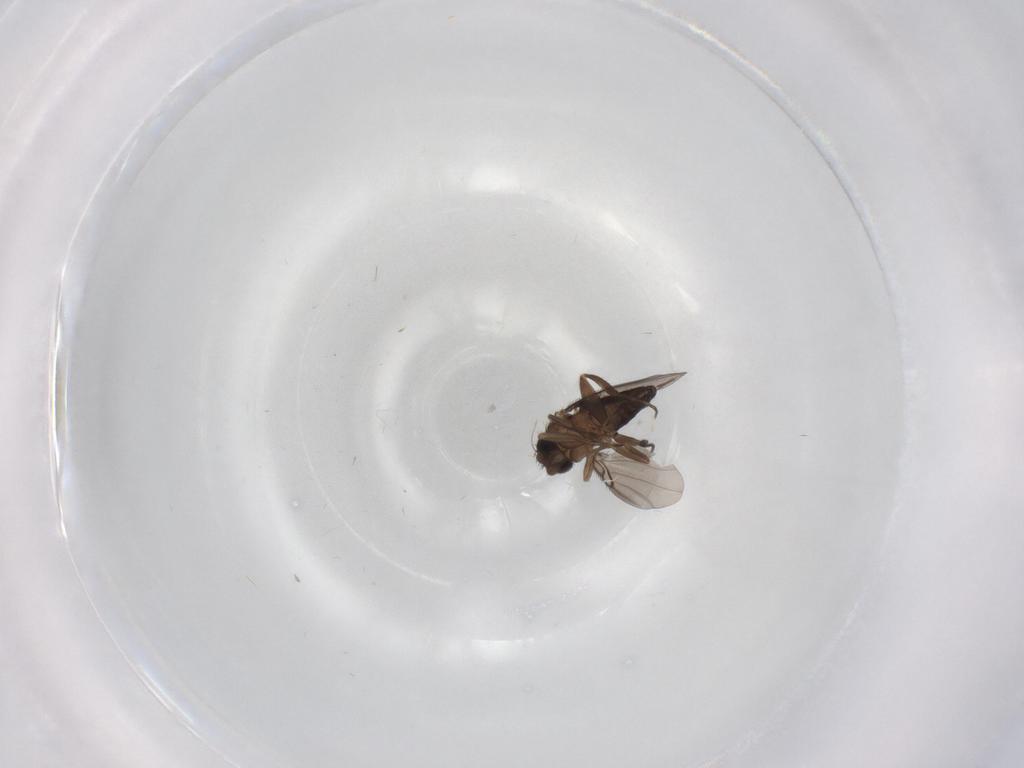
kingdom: Animalia
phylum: Arthropoda
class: Insecta
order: Diptera
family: Phoridae
